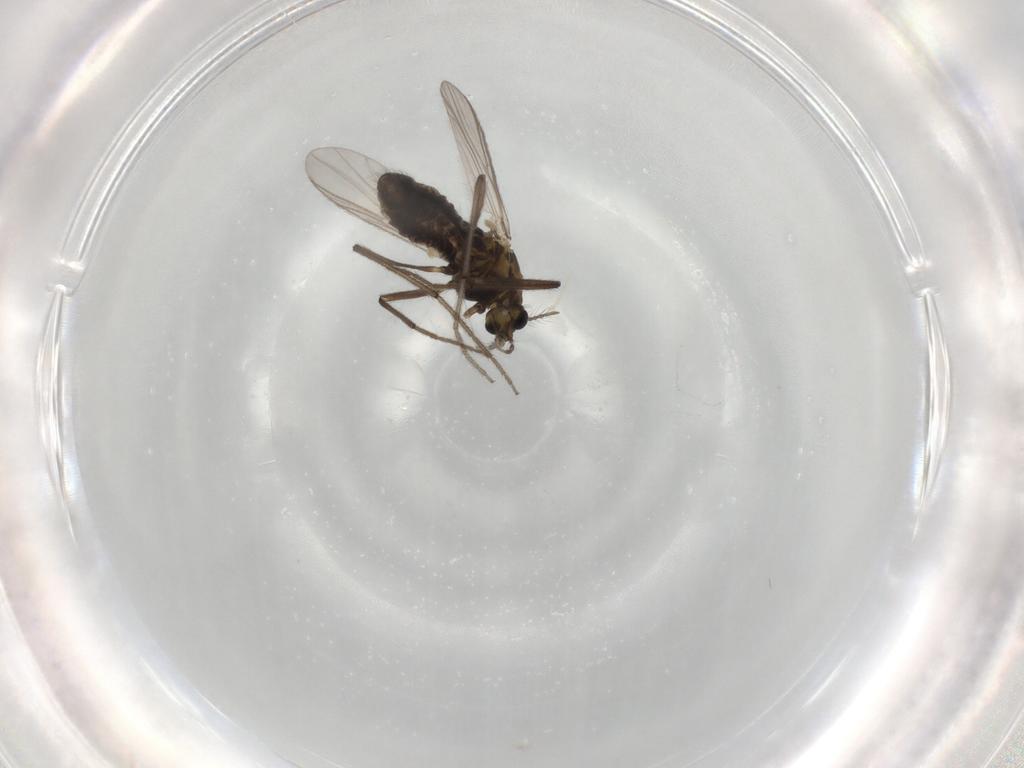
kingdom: Animalia
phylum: Arthropoda
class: Insecta
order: Diptera
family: Chironomidae
